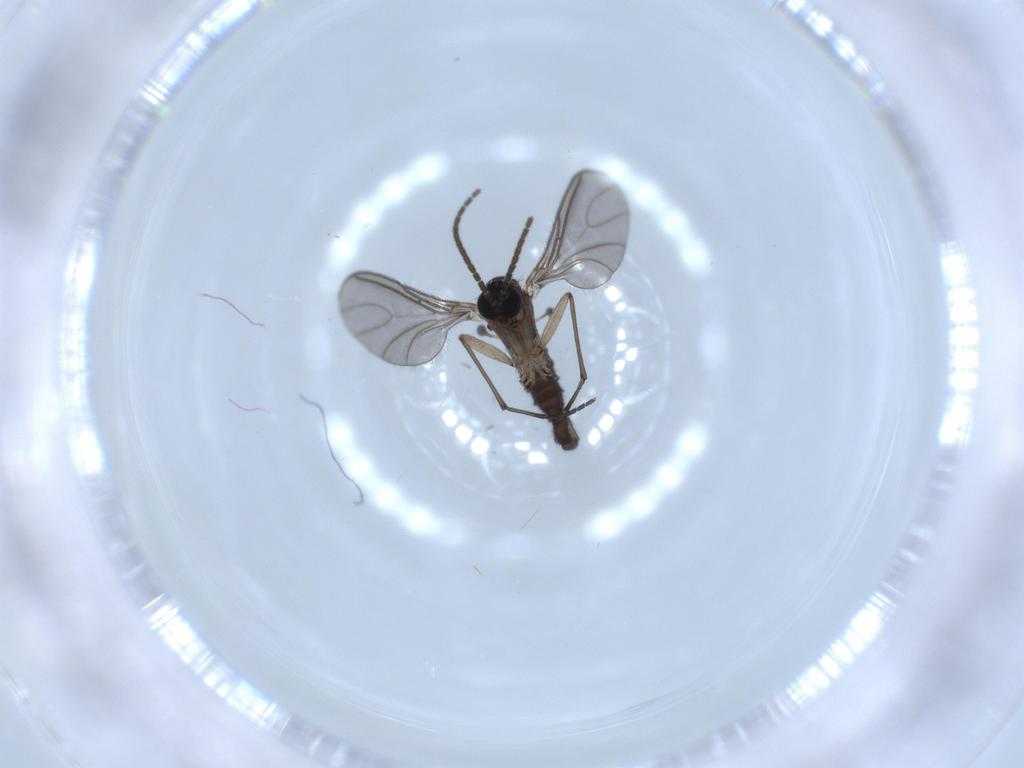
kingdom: Animalia
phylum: Arthropoda
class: Insecta
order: Diptera
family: Sciaridae
